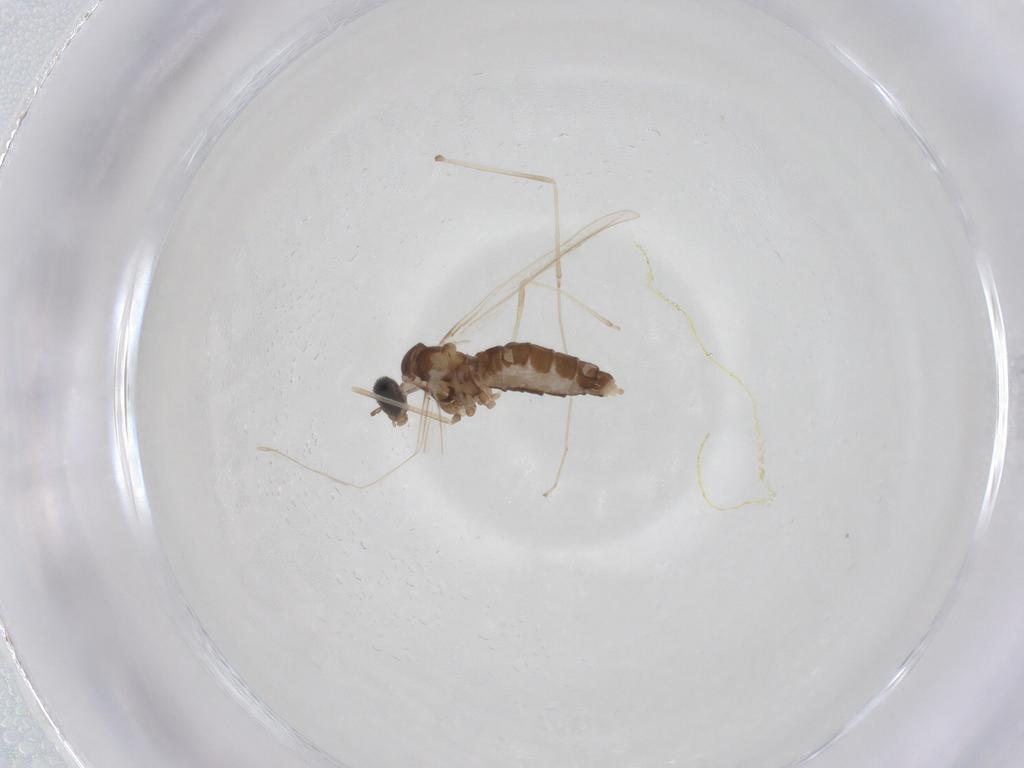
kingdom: Animalia
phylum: Arthropoda
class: Insecta
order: Diptera
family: Cecidomyiidae
